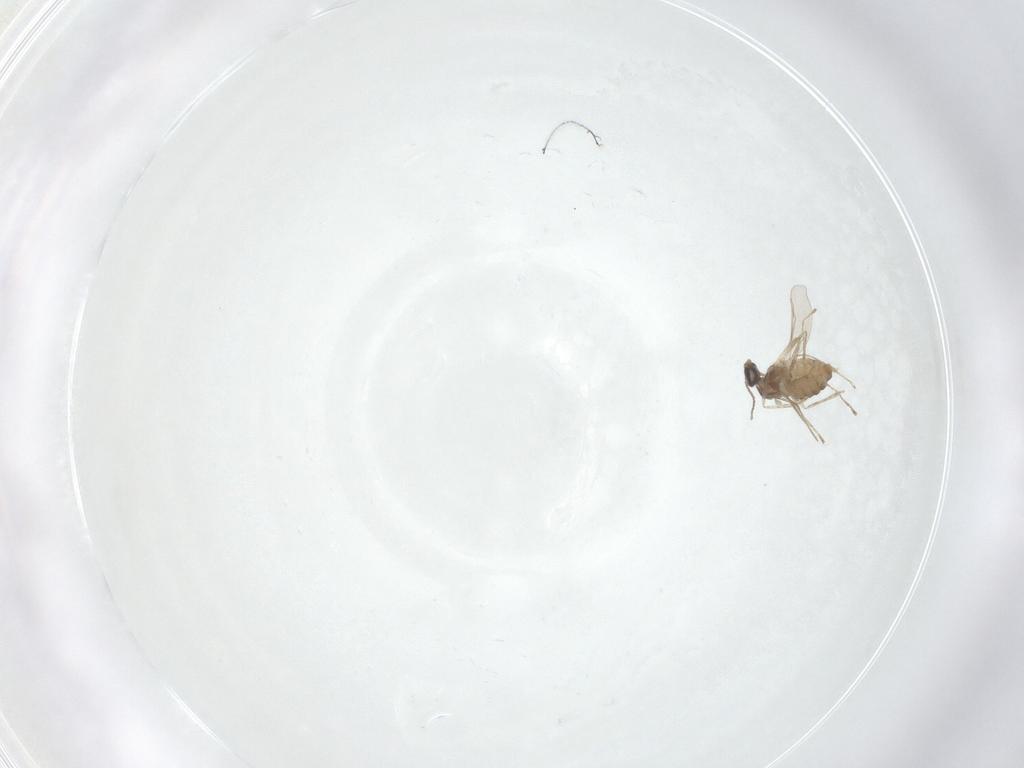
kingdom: Animalia
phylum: Arthropoda
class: Insecta
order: Diptera
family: Cecidomyiidae
